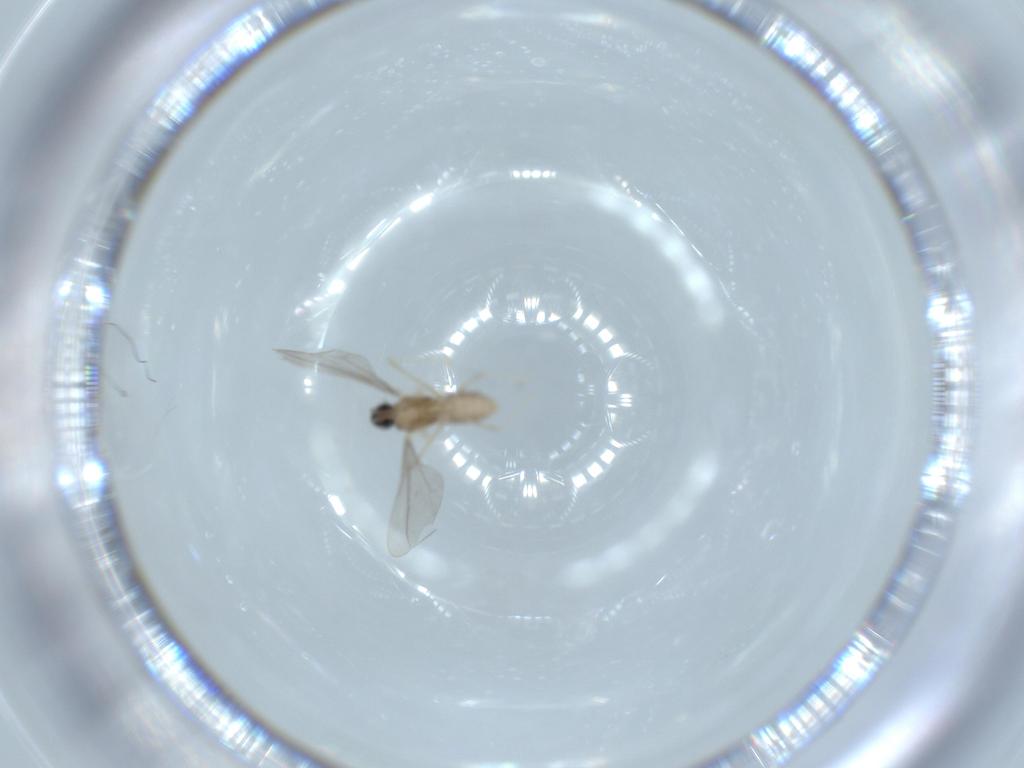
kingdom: Animalia
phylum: Arthropoda
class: Insecta
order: Diptera
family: Cecidomyiidae
